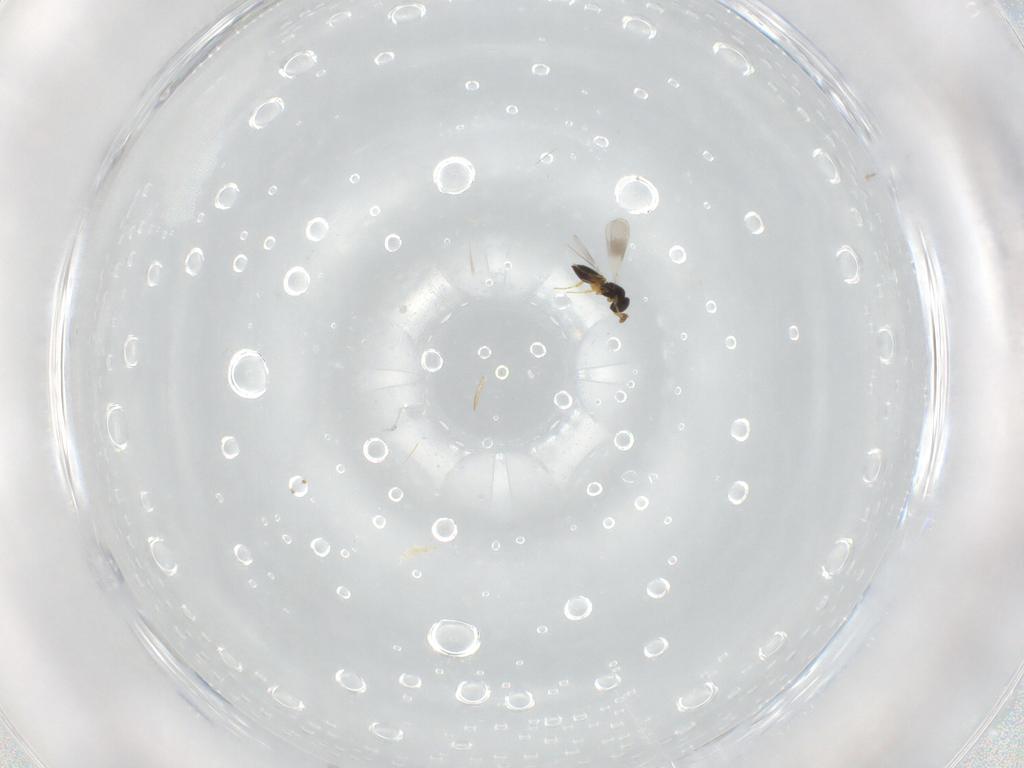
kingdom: Animalia
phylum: Arthropoda
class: Insecta
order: Hymenoptera
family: Platygastridae
